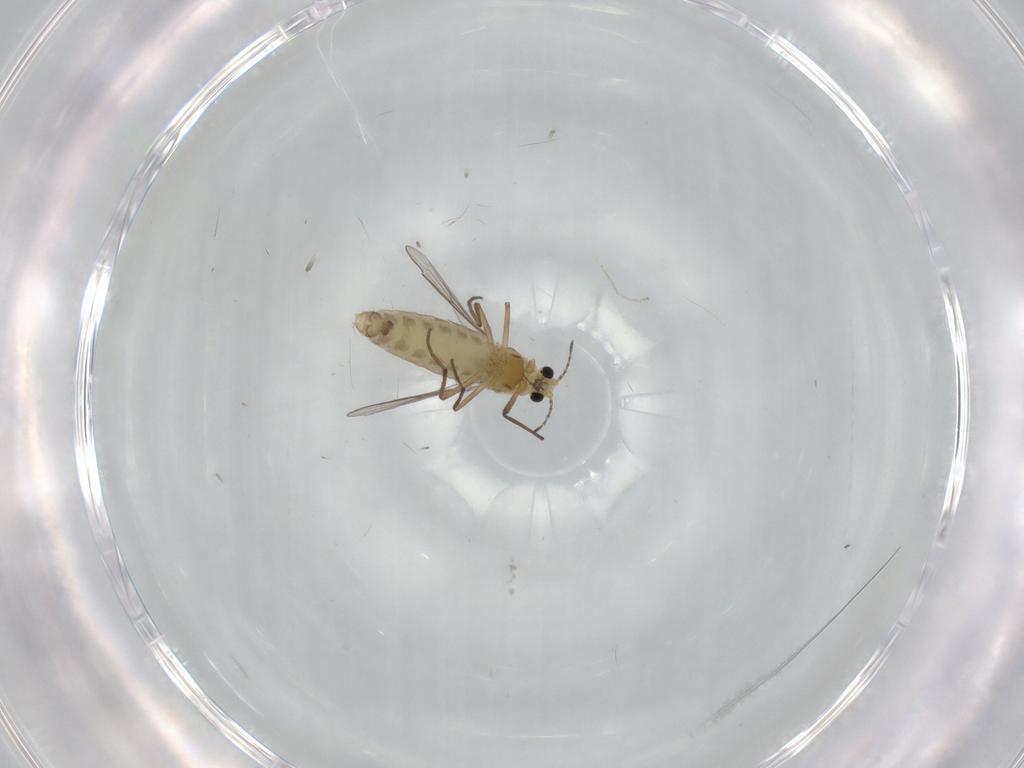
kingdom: Animalia
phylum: Arthropoda
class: Insecta
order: Diptera
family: Chironomidae
